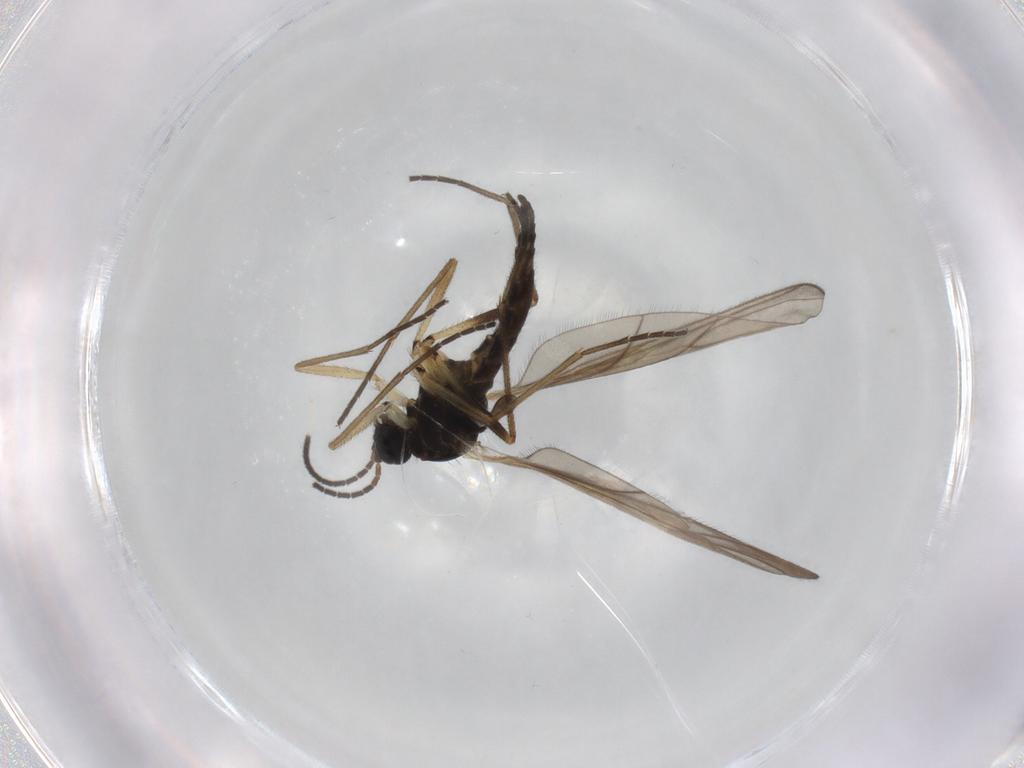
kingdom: Animalia
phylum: Arthropoda
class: Insecta
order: Diptera
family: Sciaridae
